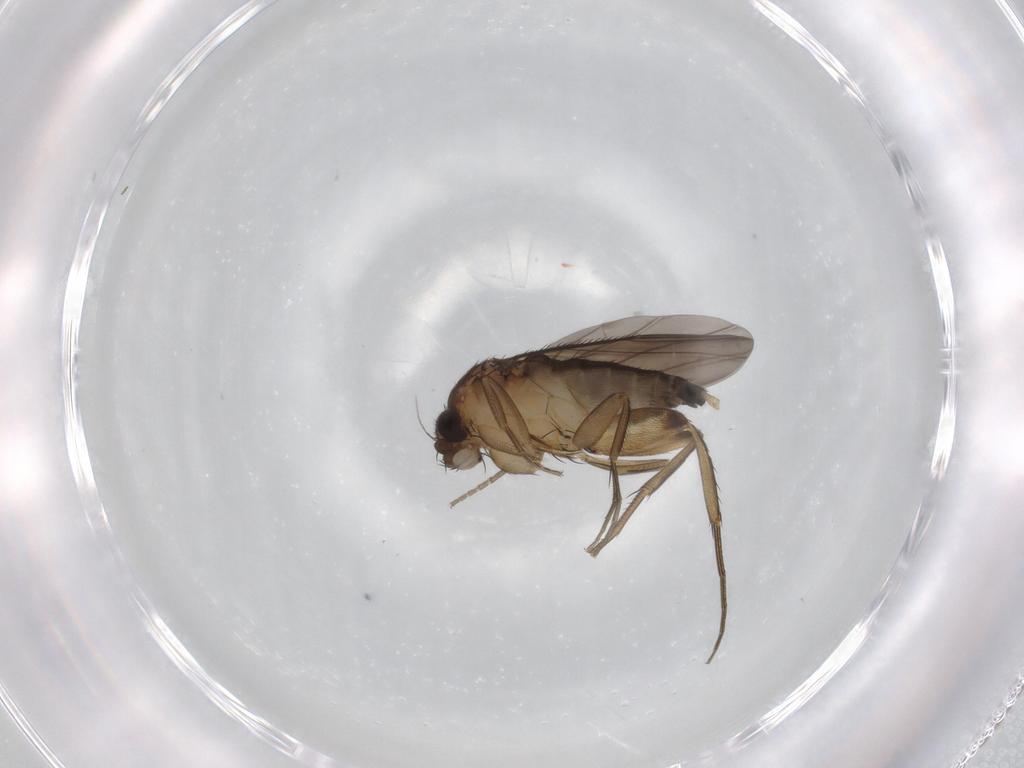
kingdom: Animalia
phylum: Arthropoda
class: Insecta
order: Diptera
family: Phoridae
